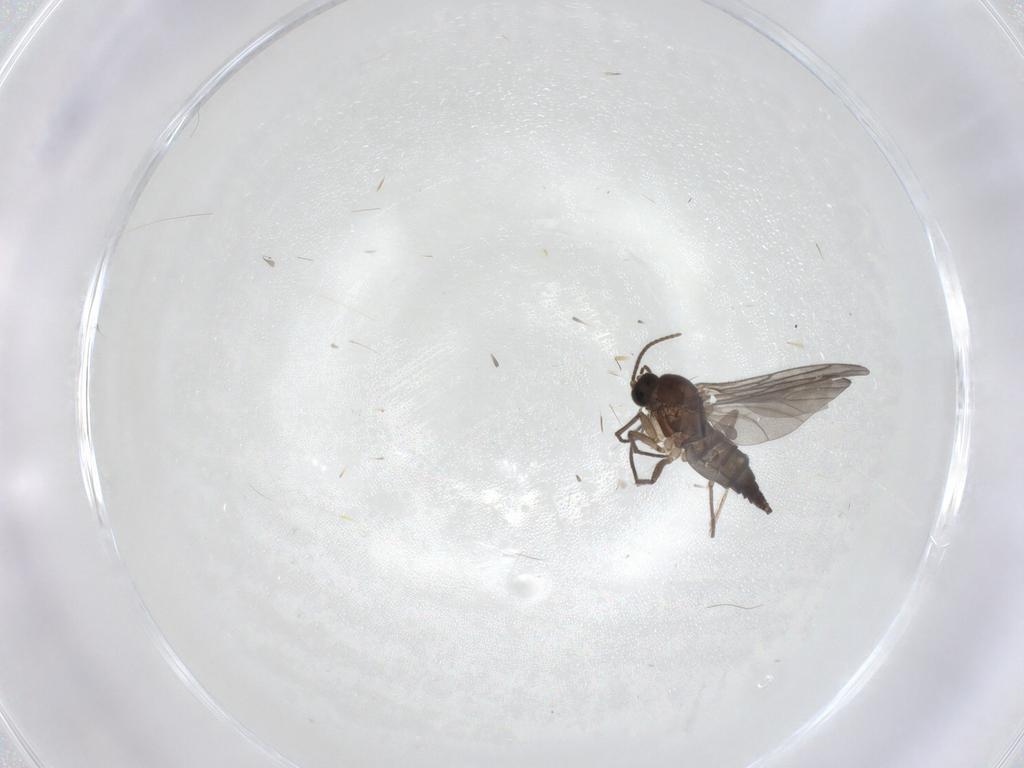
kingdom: Animalia
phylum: Arthropoda
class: Insecta
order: Diptera
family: Sciaridae
